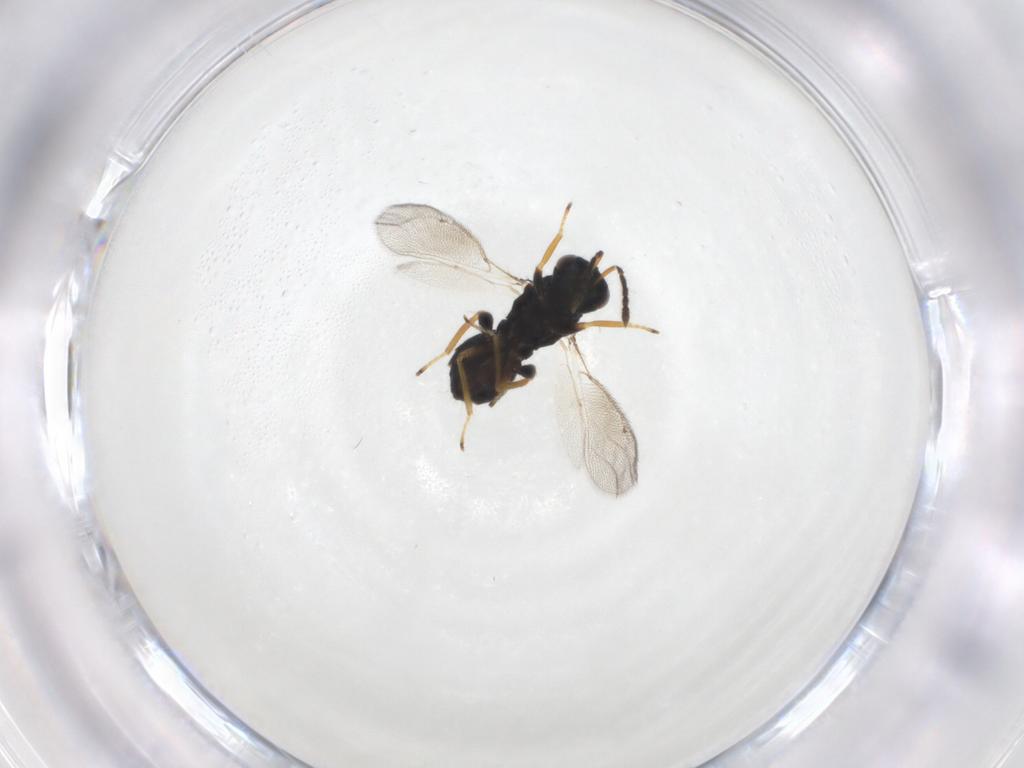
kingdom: Animalia
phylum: Arthropoda
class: Insecta
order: Hymenoptera
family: Eulophidae
